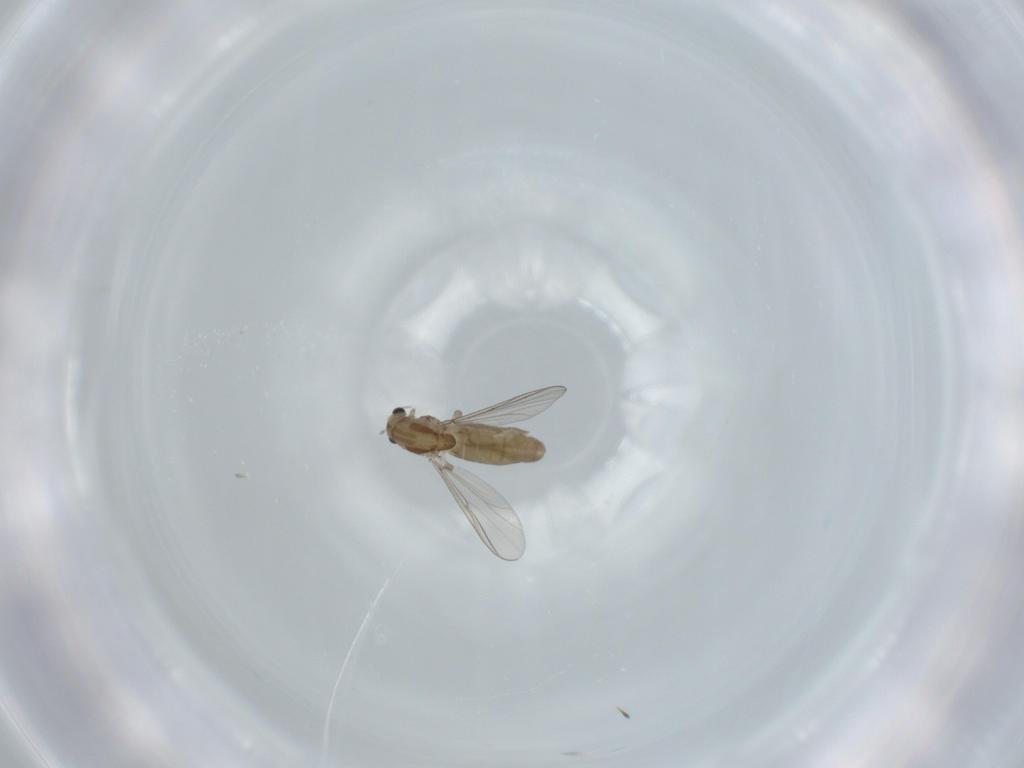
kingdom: Animalia
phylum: Arthropoda
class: Insecta
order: Diptera
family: Chironomidae
